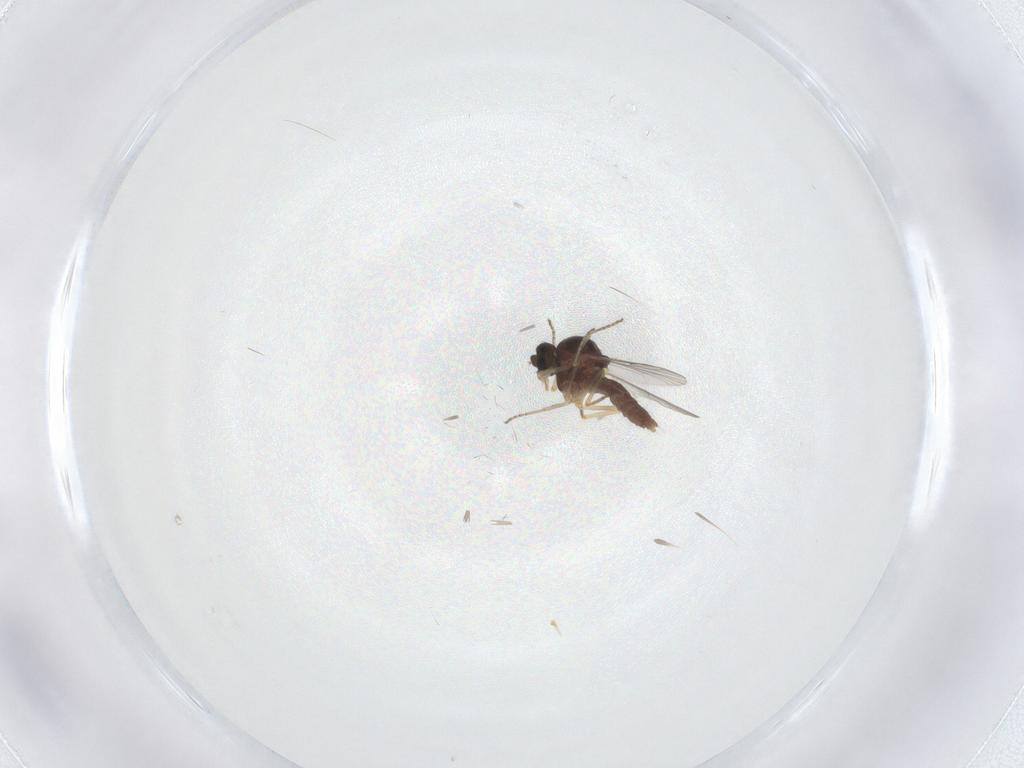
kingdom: Animalia
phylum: Arthropoda
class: Insecta
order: Diptera
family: Ceratopogonidae
